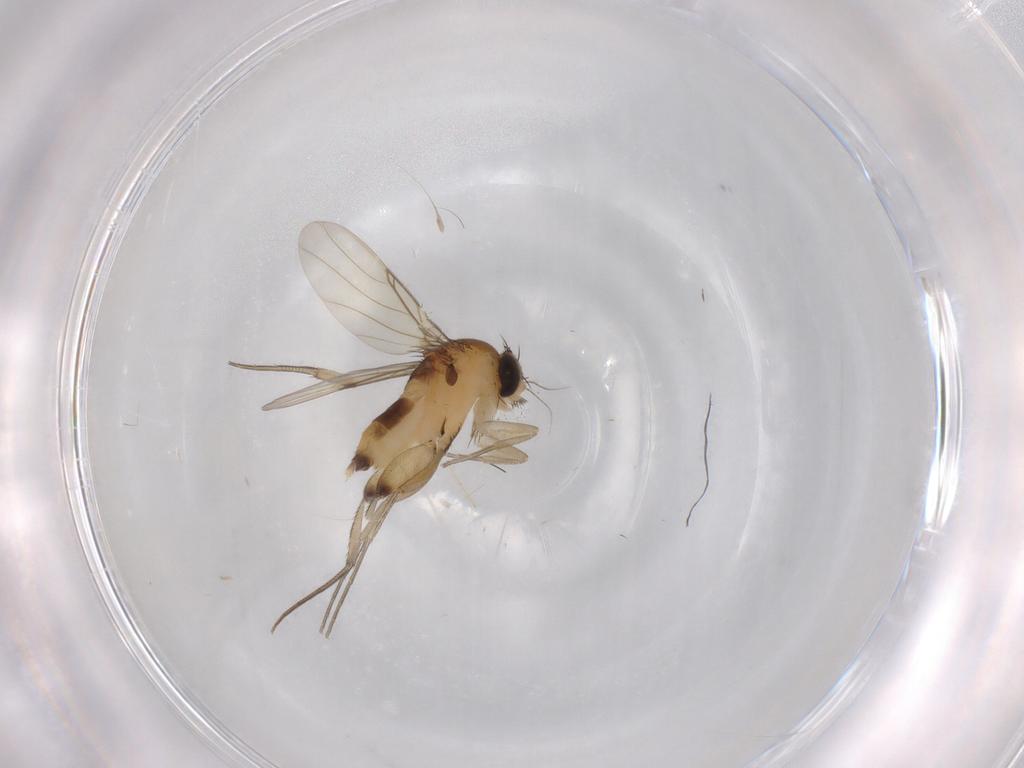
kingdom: Animalia
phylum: Arthropoda
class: Insecta
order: Diptera
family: Phoridae
